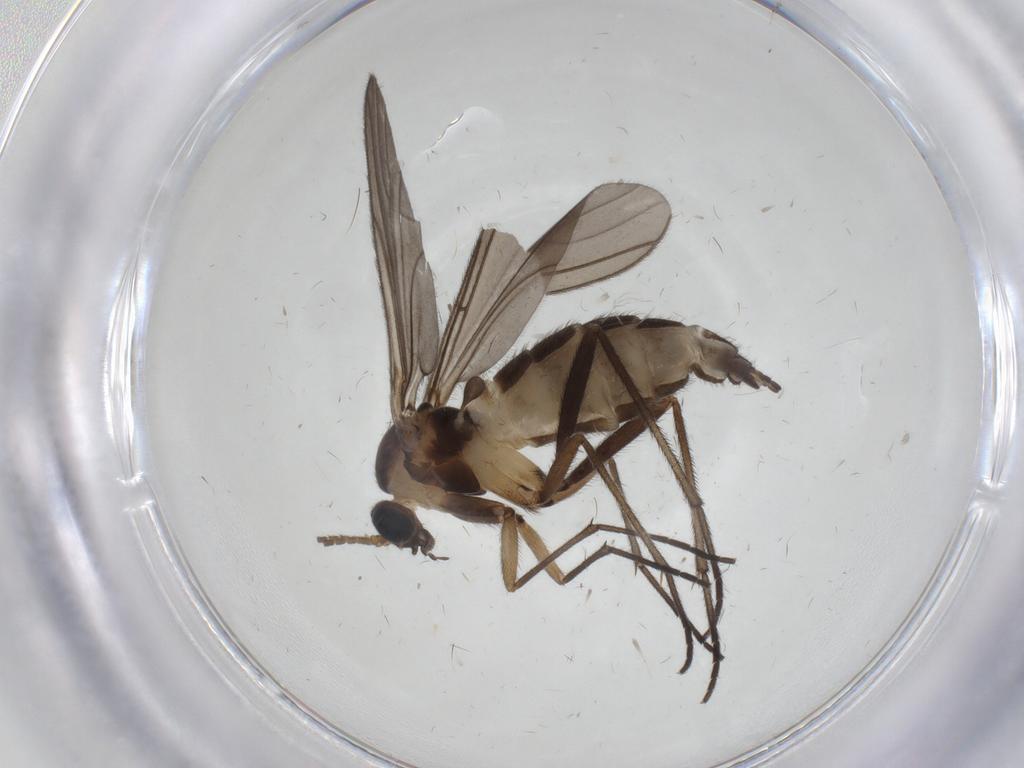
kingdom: Animalia
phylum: Arthropoda
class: Insecta
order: Diptera
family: Sciaridae
